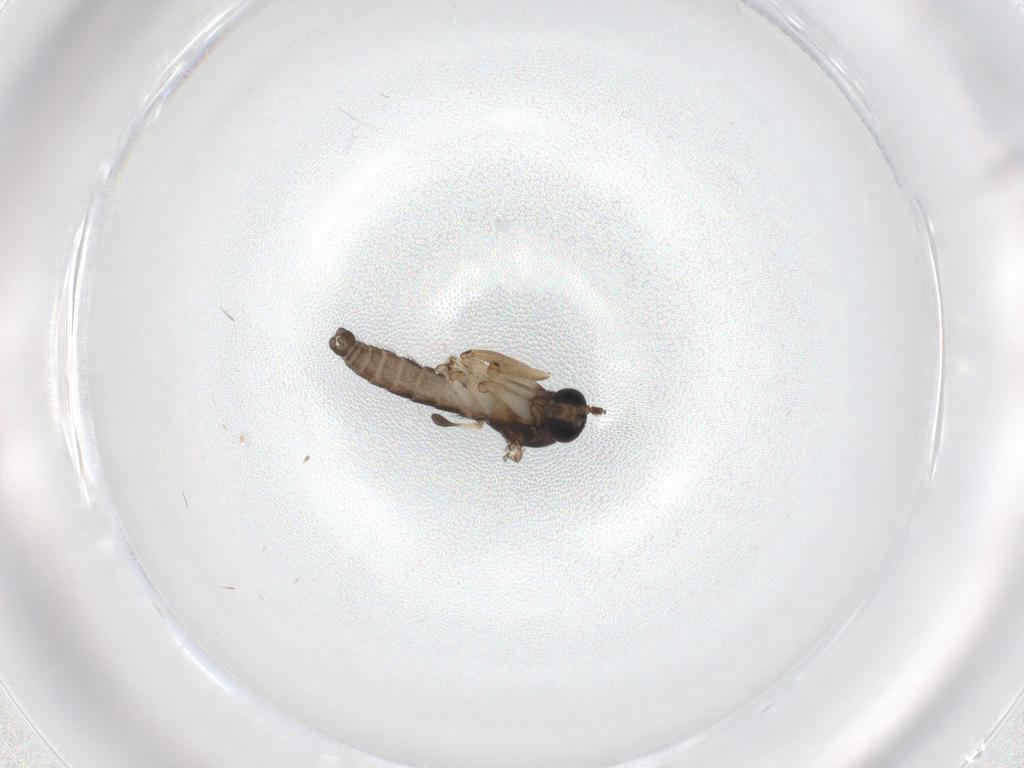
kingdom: Animalia
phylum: Arthropoda
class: Insecta
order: Diptera
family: Sciaridae
